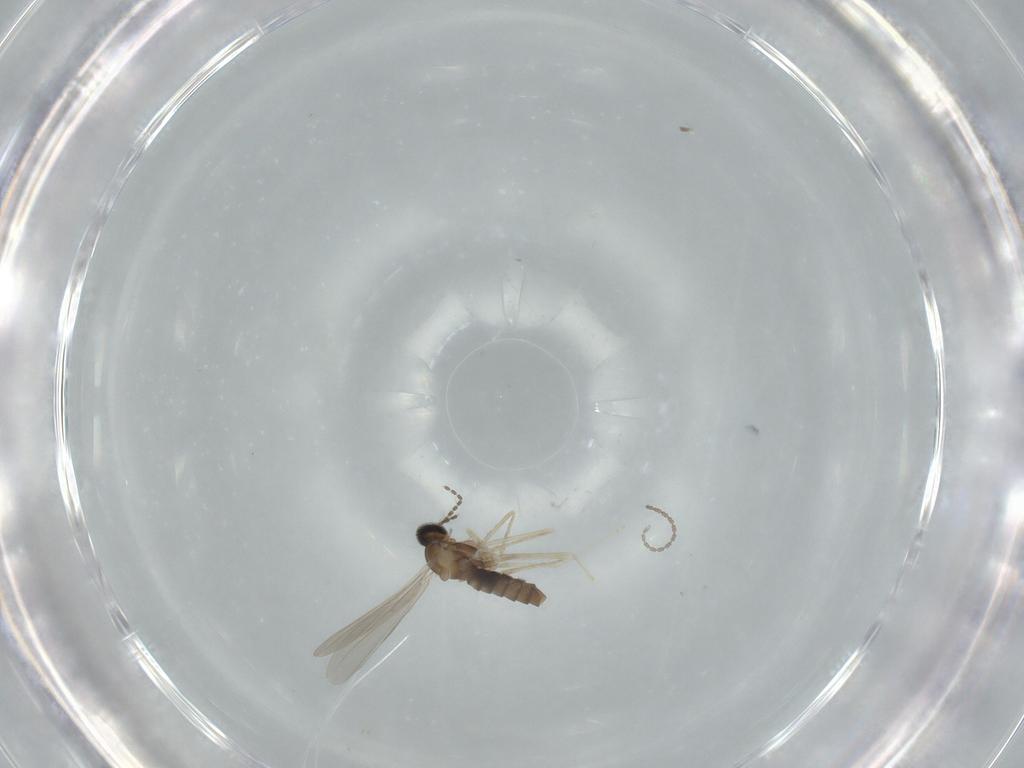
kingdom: Animalia
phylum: Arthropoda
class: Insecta
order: Diptera
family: Cecidomyiidae
